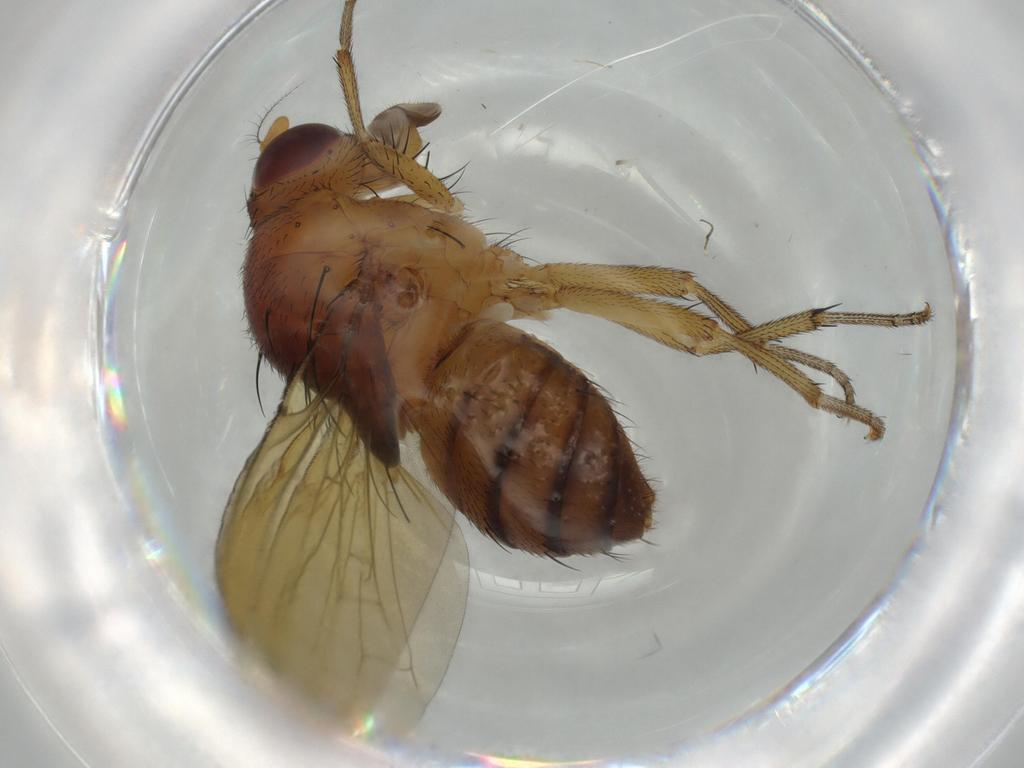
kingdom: Animalia
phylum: Arthropoda
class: Insecta
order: Diptera
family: Cecidomyiidae
